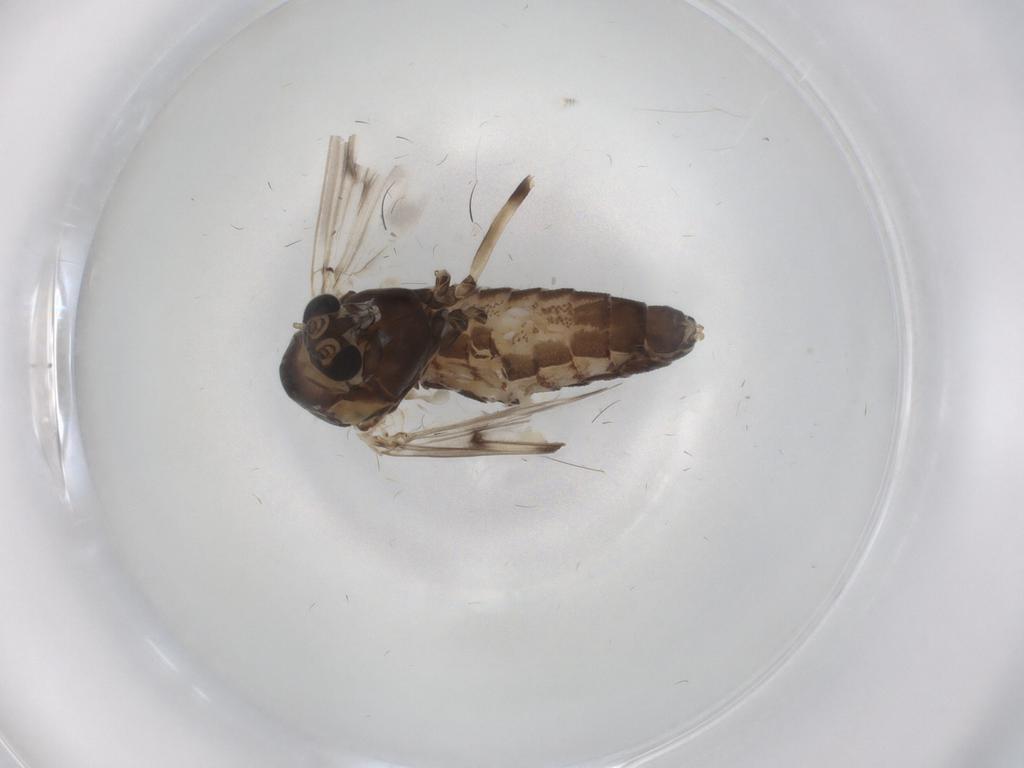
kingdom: Animalia
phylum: Arthropoda
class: Insecta
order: Diptera
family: Chironomidae
